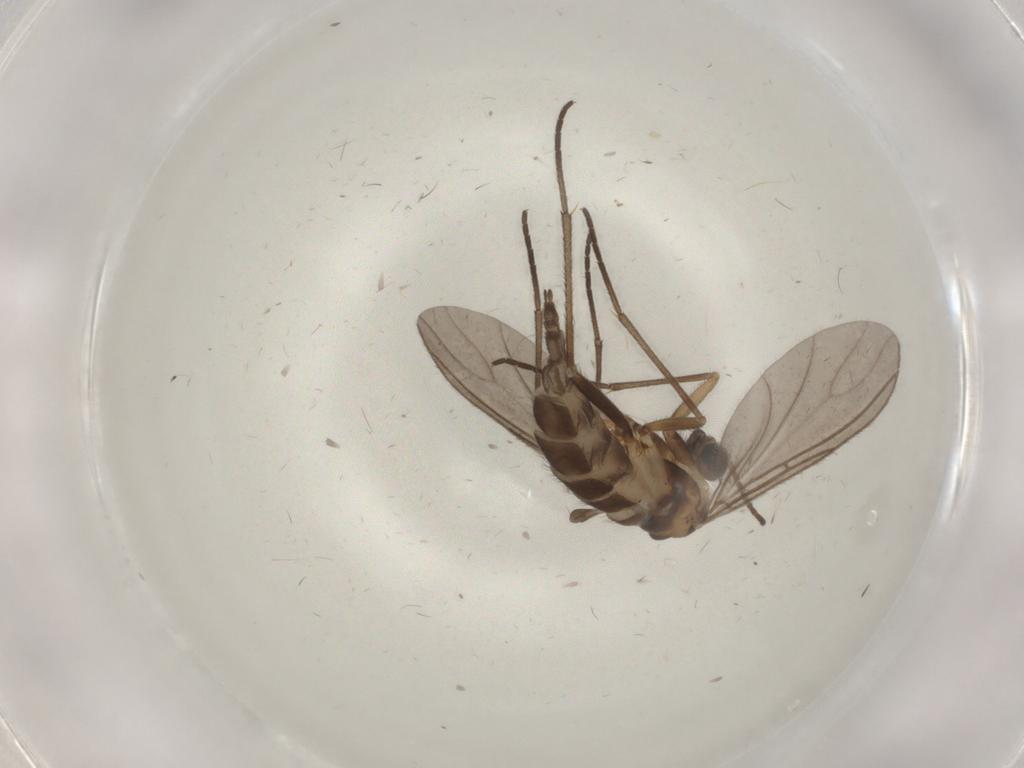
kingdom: Animalia
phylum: Arthropoda
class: Insecta
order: Diptera
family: Sciaridae
